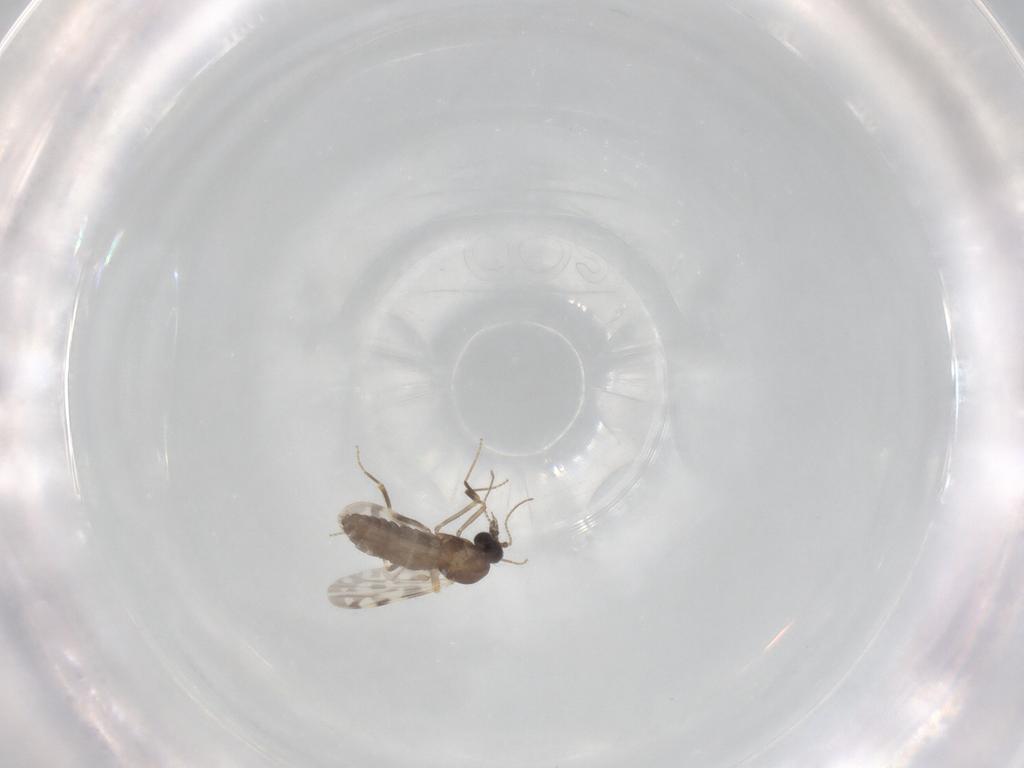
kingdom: Animalia
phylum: Arthropoda
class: Insecta
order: Diptera
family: Ceratopogonidae
